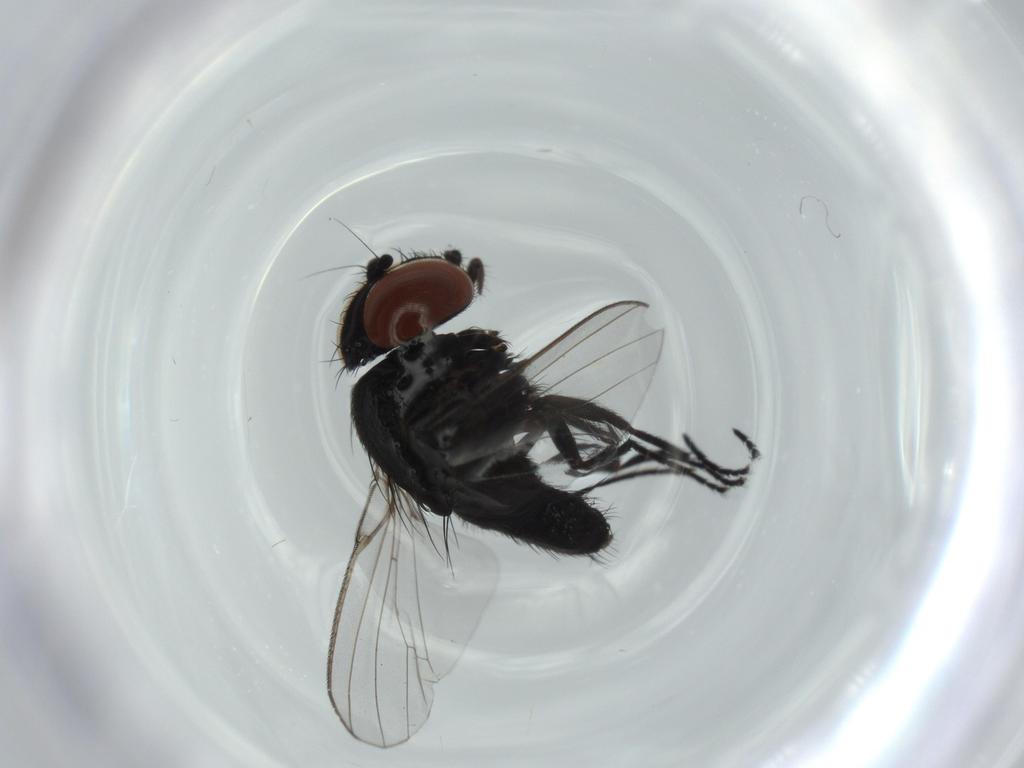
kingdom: Animalia
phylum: Arthropoda
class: Insecta
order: Diptera
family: Milichiidae
